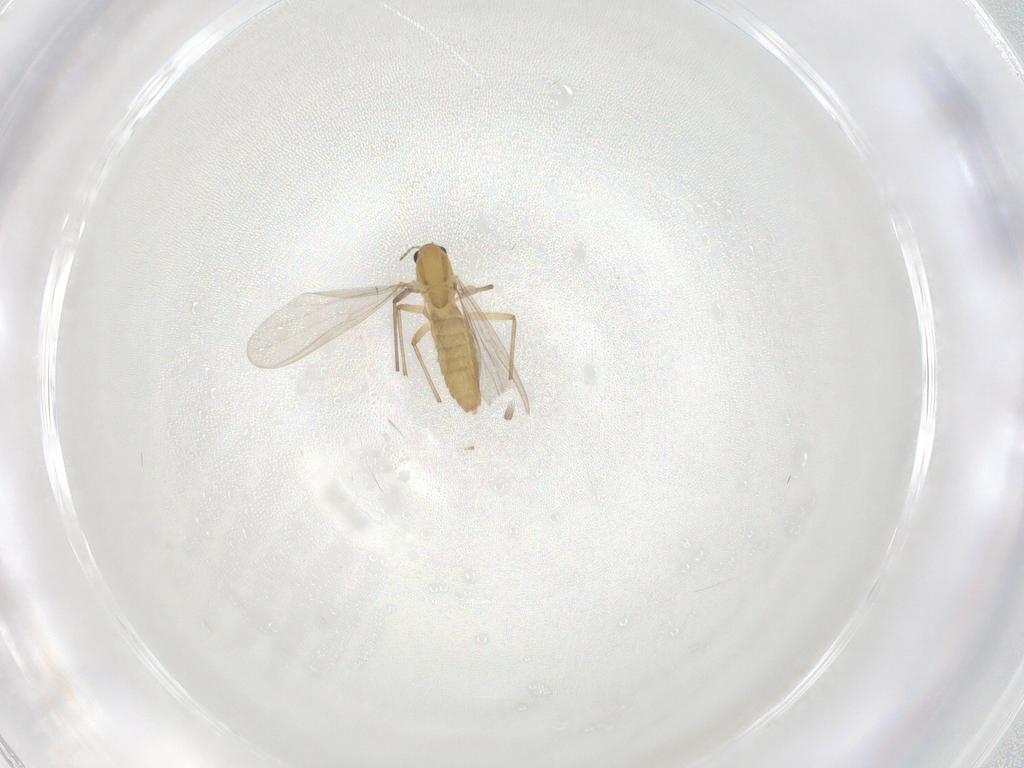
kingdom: Animalia
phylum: Arthropoda
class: Insecta
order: Diptera
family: Chironomidae
